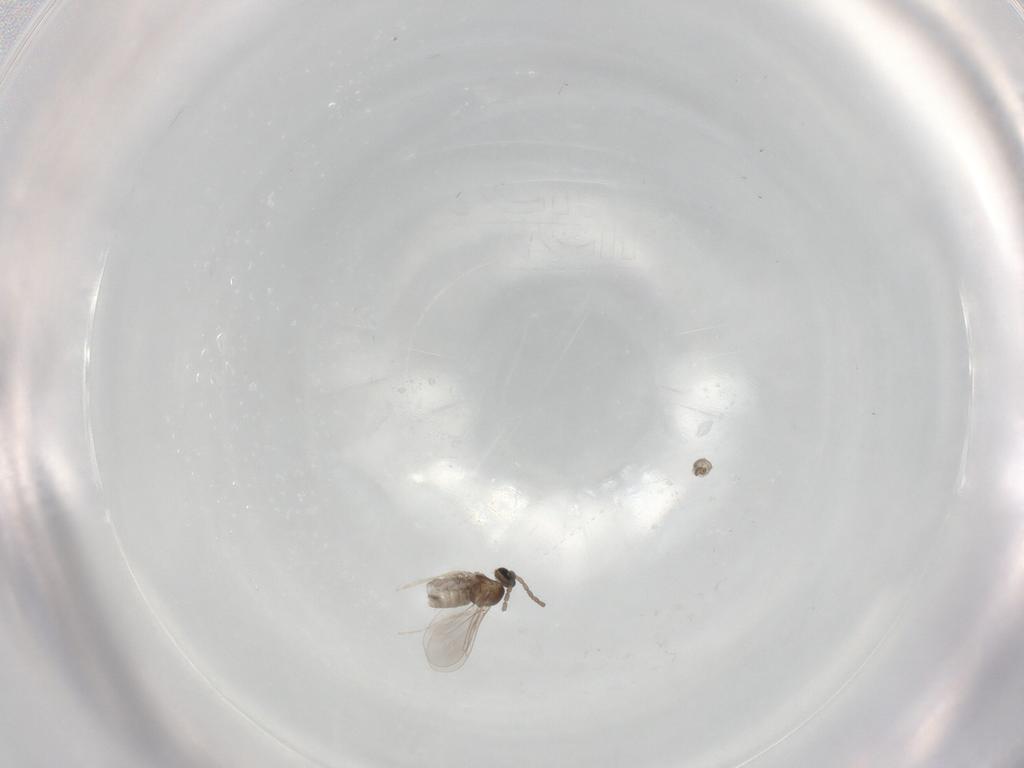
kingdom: Animalia
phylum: Arthropoda
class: Insecta
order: Diptera
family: Cecidomyiidae
